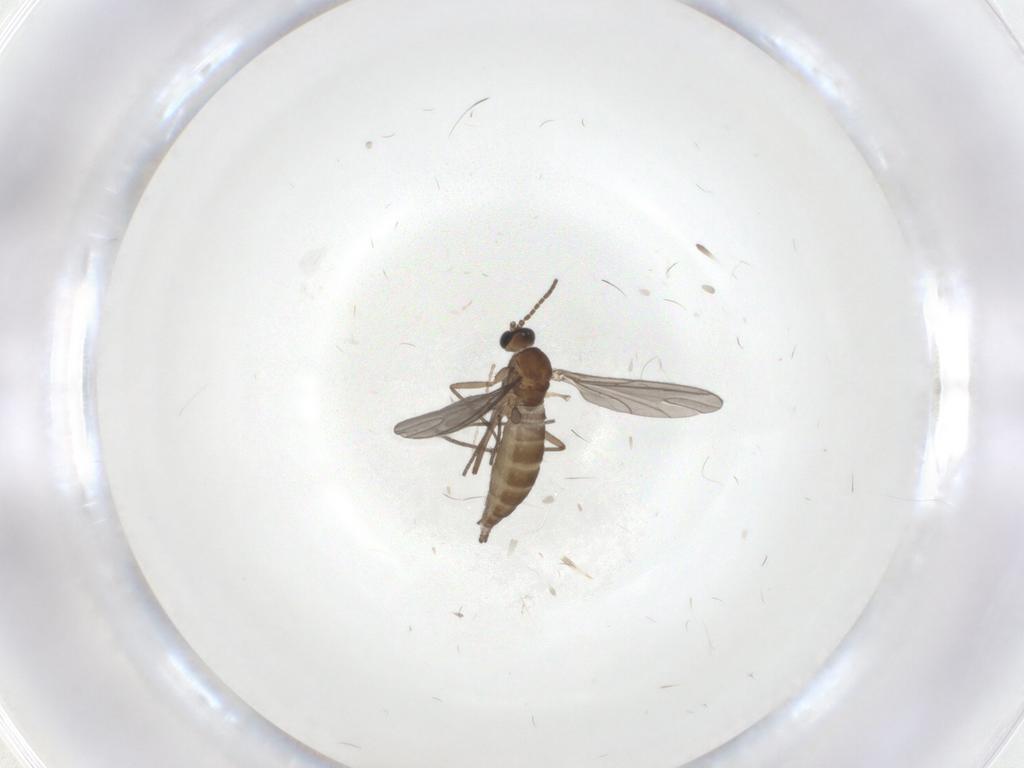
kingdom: Animalia
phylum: Arthropoda
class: Insecta
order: Diptera
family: Sciaridae
